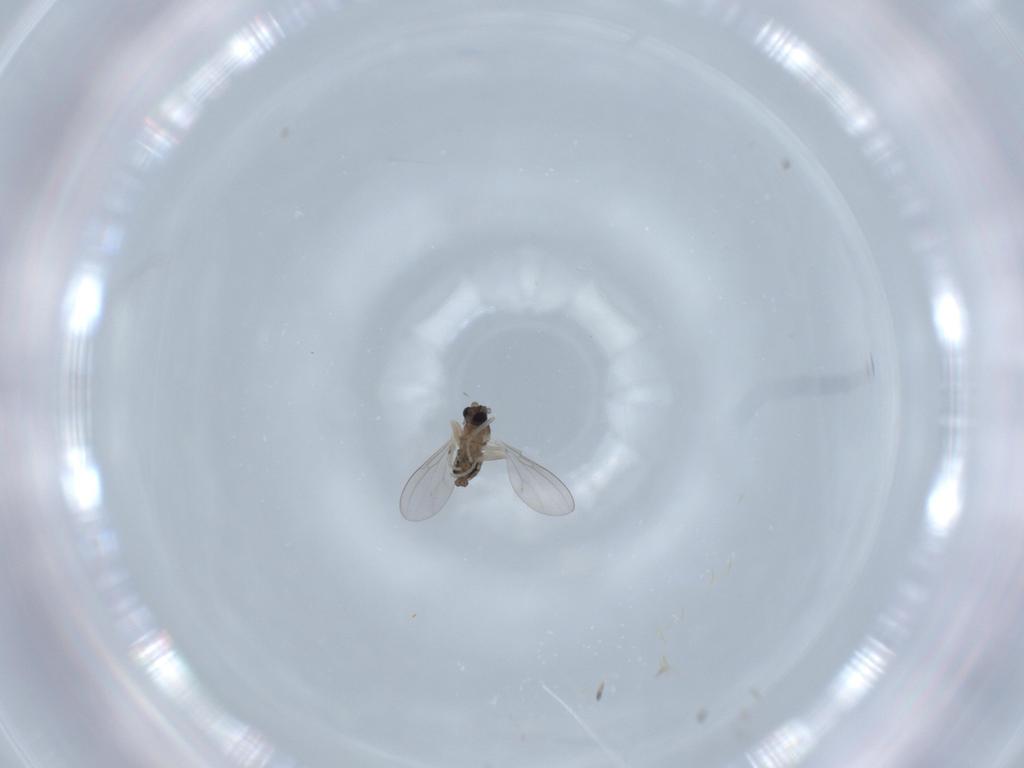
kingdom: Animalia
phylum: Arthropoda
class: Insecta
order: Diptera
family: Cecidomyiidae
